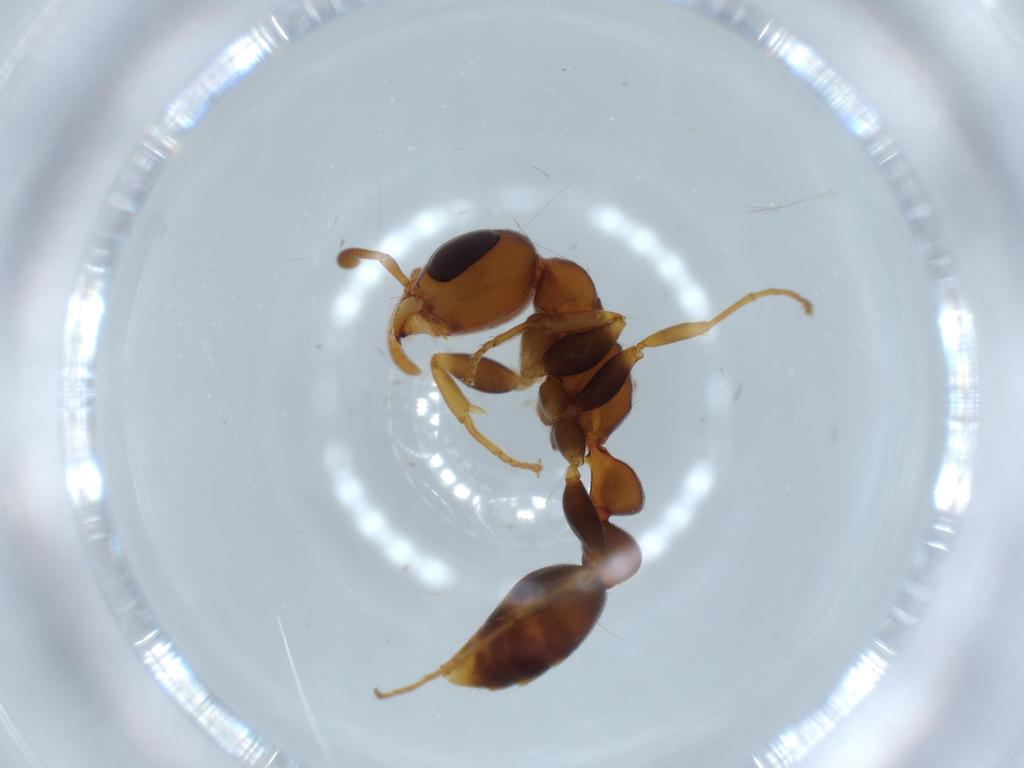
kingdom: Animalia
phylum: Arthropoda
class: Insecta
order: Hymenoptera
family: Formicidae
